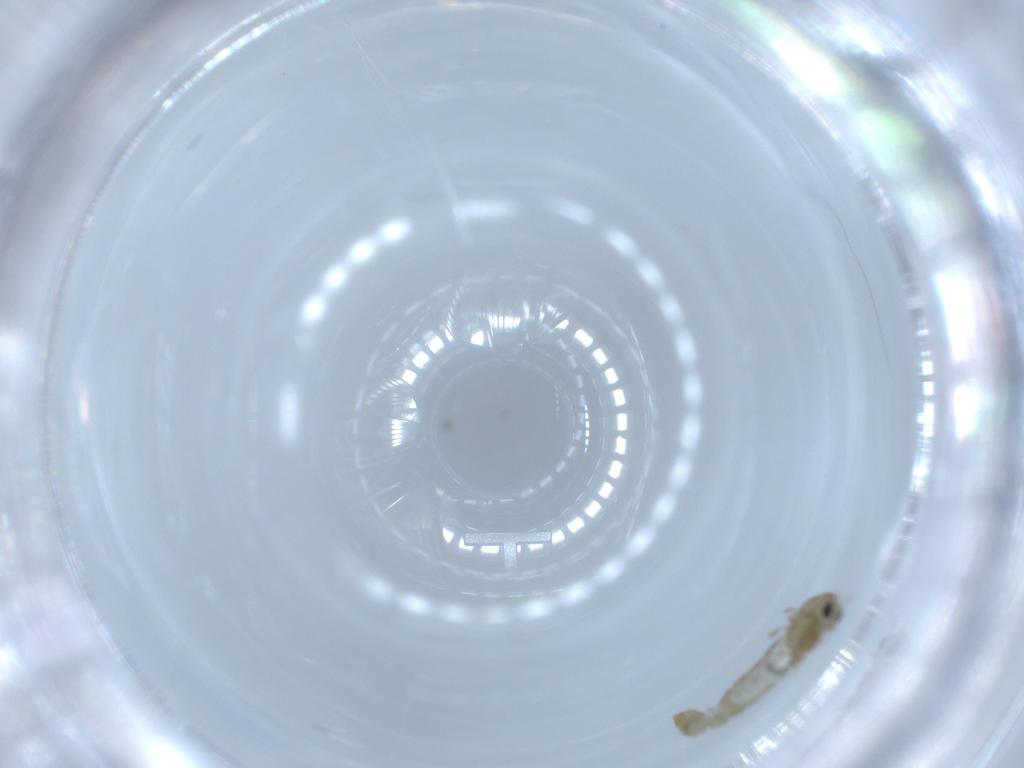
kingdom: Animalia
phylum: Arthropoda
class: Insecta
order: Diptera
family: Chironomidae
